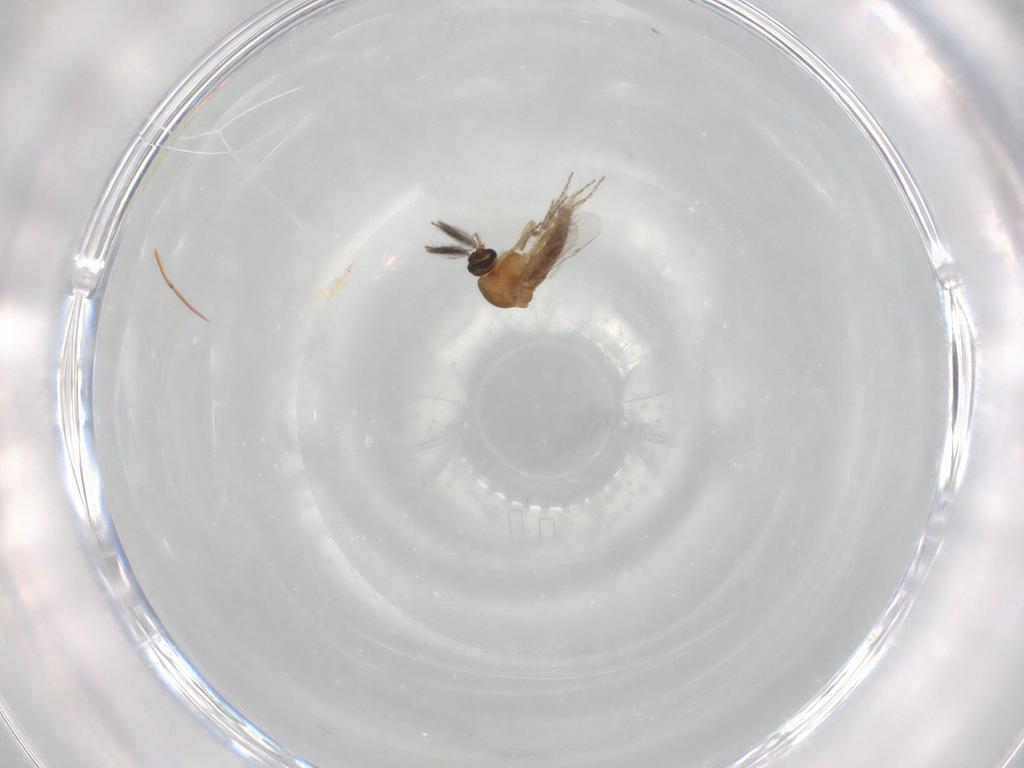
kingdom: Animalia
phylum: Arthropoda
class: Insecta
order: Diptera
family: Ceratopogonidae
